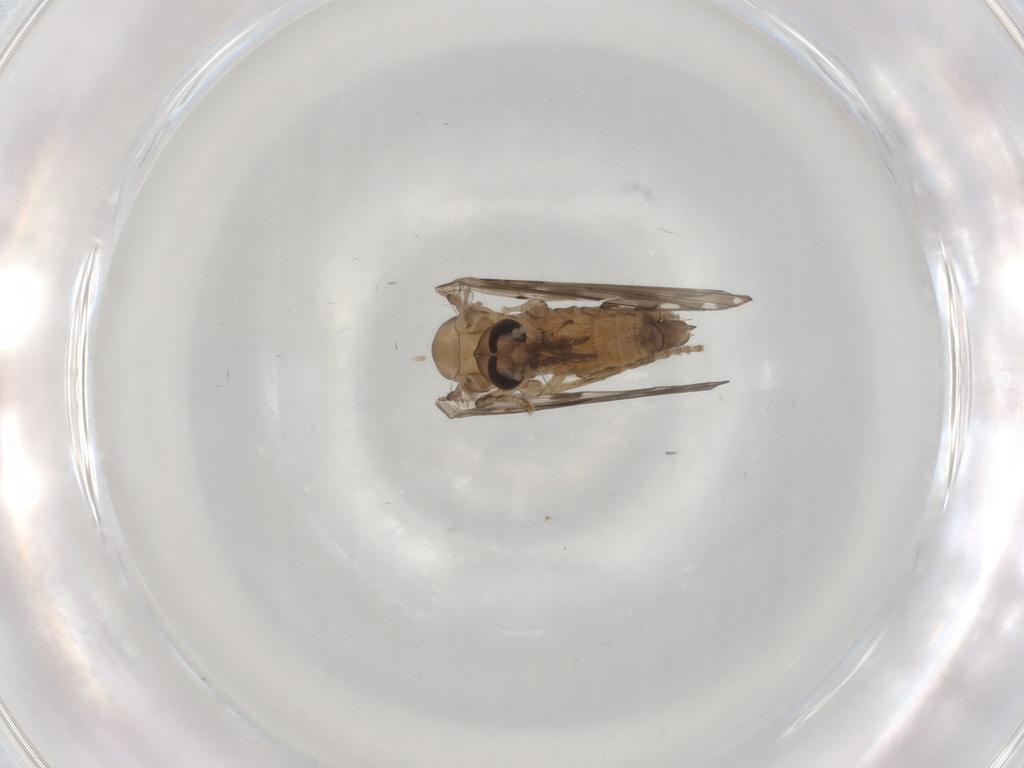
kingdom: Animalia
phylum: Arthropoda
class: Insecta
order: Diptera
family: Psychodidae
